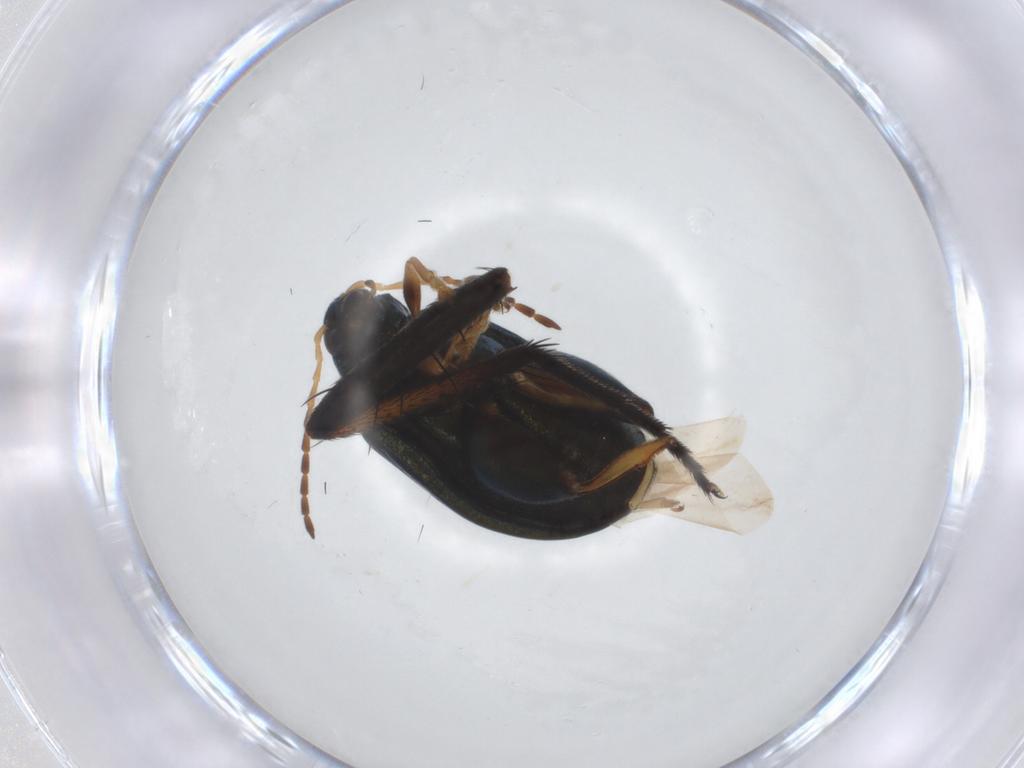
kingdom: Animalia
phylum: Arthropoda
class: Insecta
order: Coleoptera
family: Chrysomelidae
